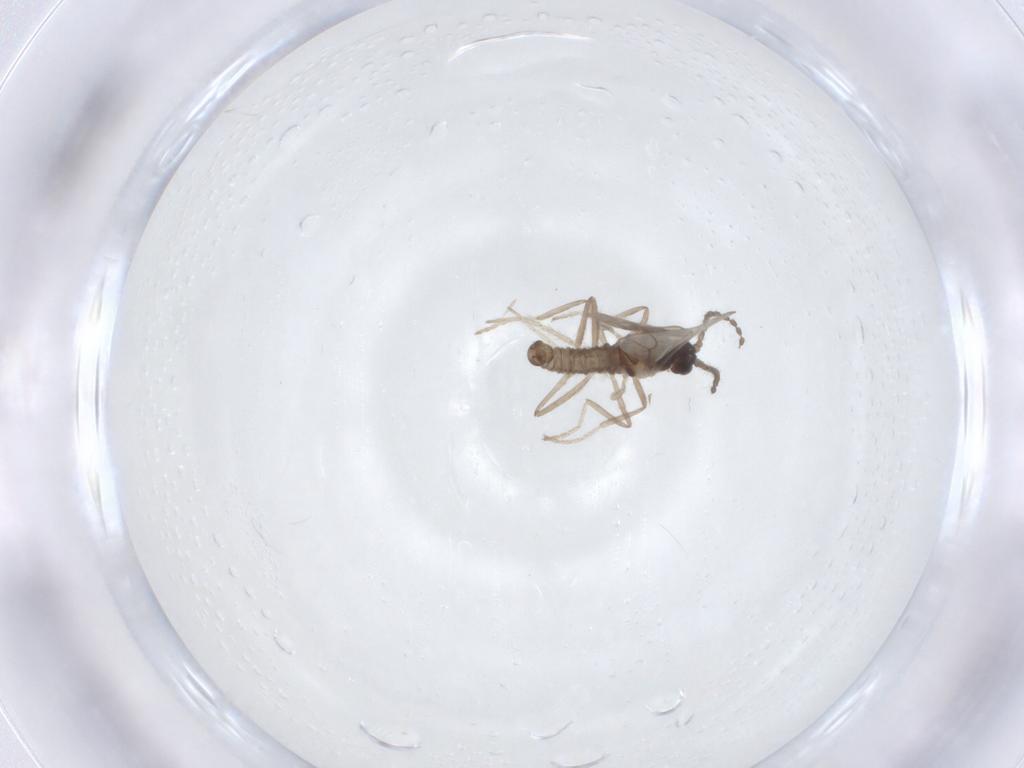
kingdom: Animalia
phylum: Arthropoda
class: Insecta
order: Diptera
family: Cecidomyiidae
